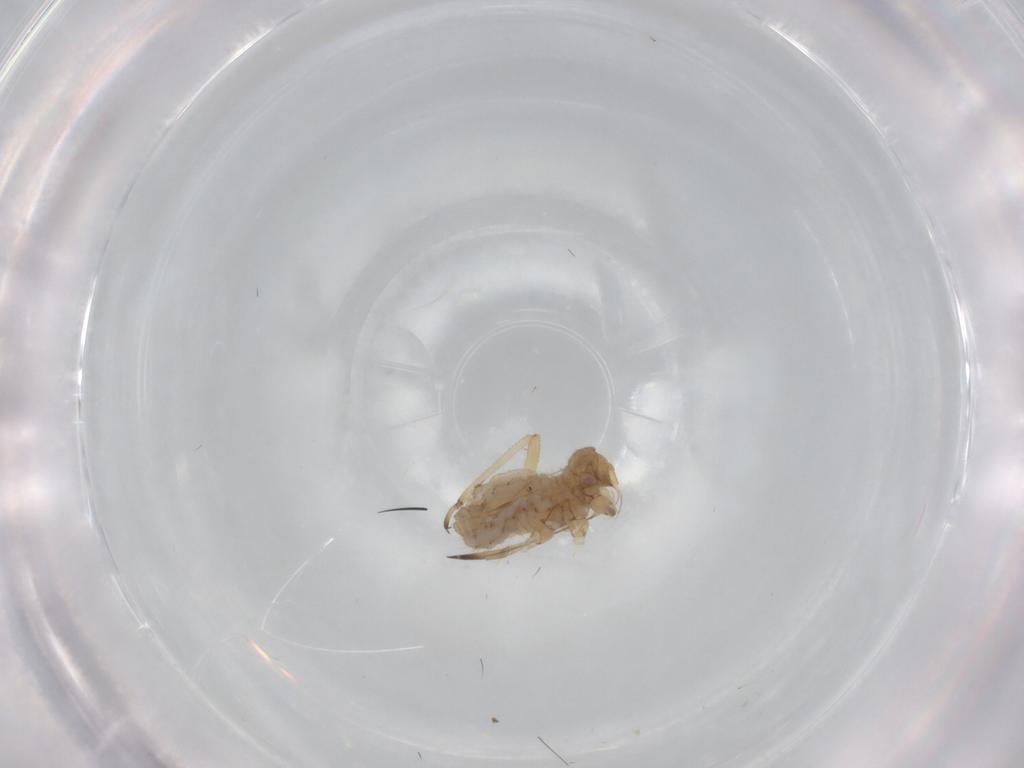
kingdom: Animalia
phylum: Arthropoda
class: Insecta
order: Hemiptera
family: Aphididae
